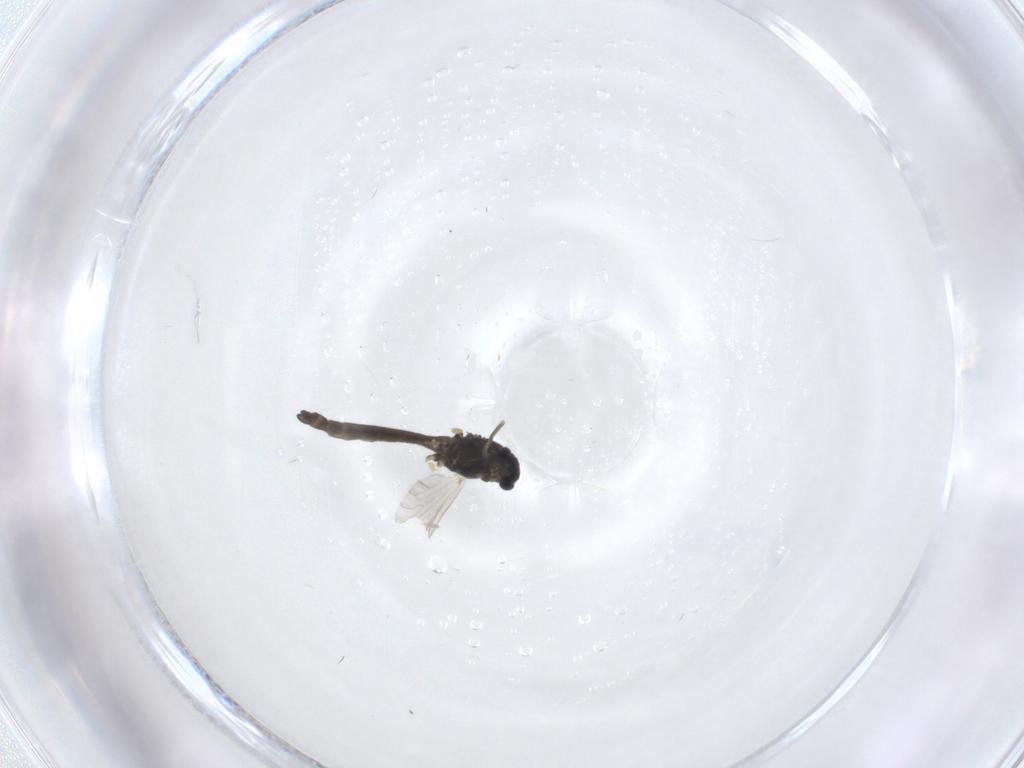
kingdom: Animalia
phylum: Arthropoda
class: Insecta
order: Diptera
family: Chironomidae
